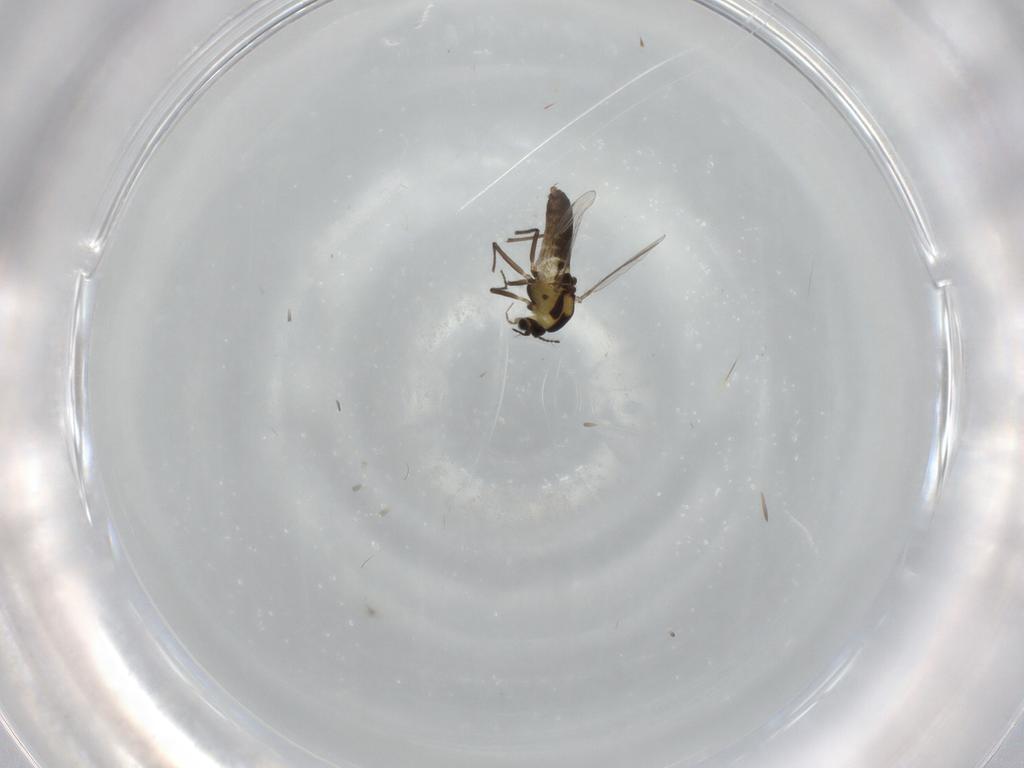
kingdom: Animalia
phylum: Arthropoda
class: Insecta
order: Diptera
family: Chironomidae
